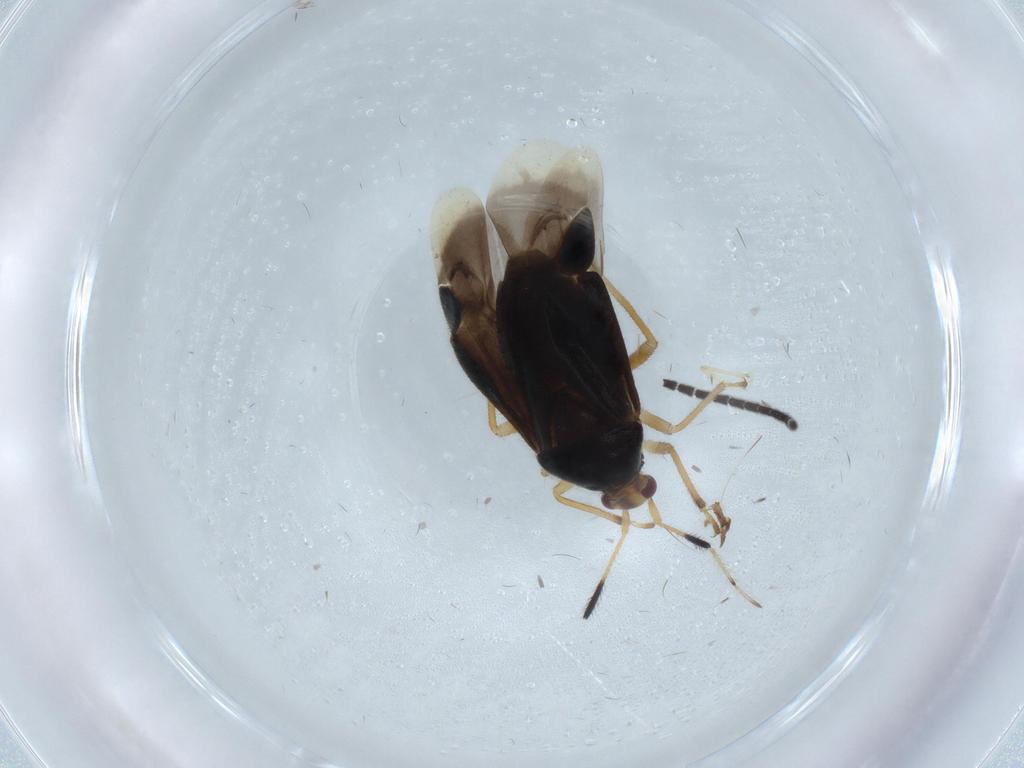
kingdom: Animalia
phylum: Arthropoda
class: Insecta
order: Hemiptera
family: Miridae
